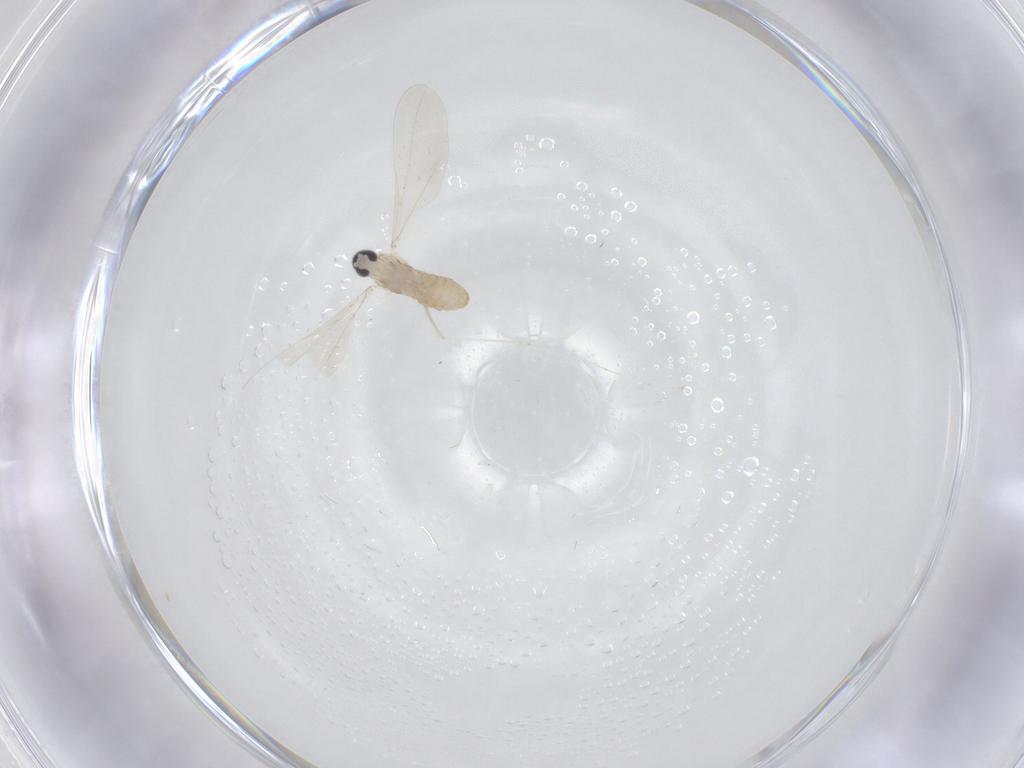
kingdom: Animalia
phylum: Arthropoda
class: Insecta
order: Diptera
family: Cecidomyiidae
